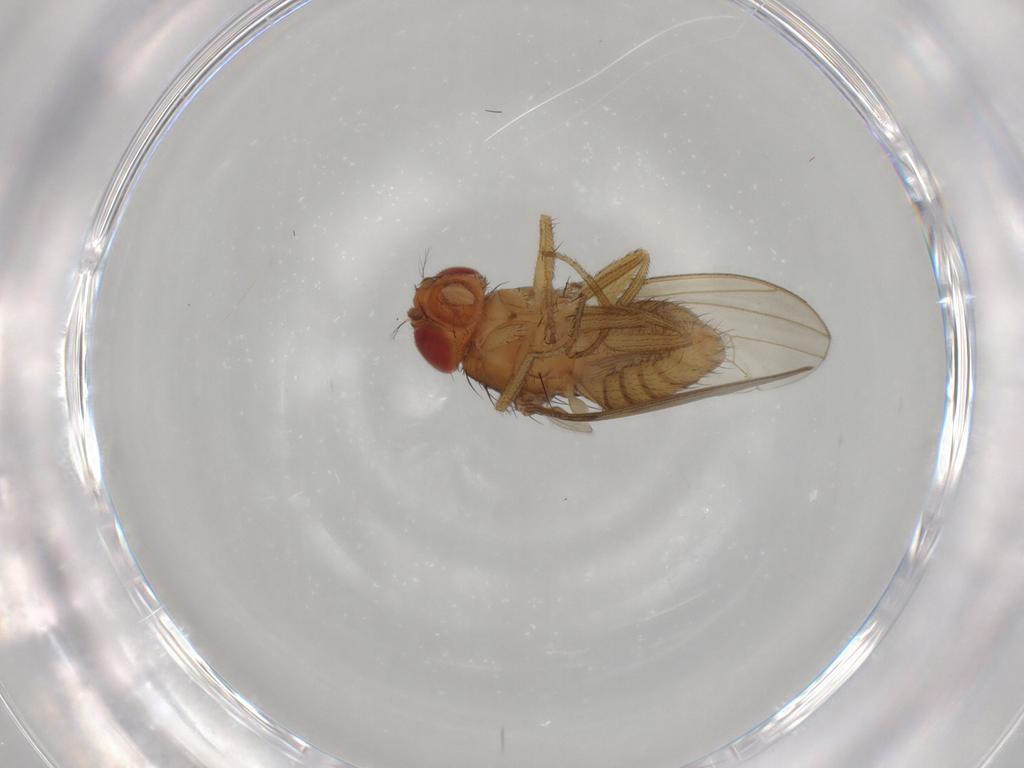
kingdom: Animalia
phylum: Arthropoda
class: Insecta
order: Diptera
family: Drosophilidae
